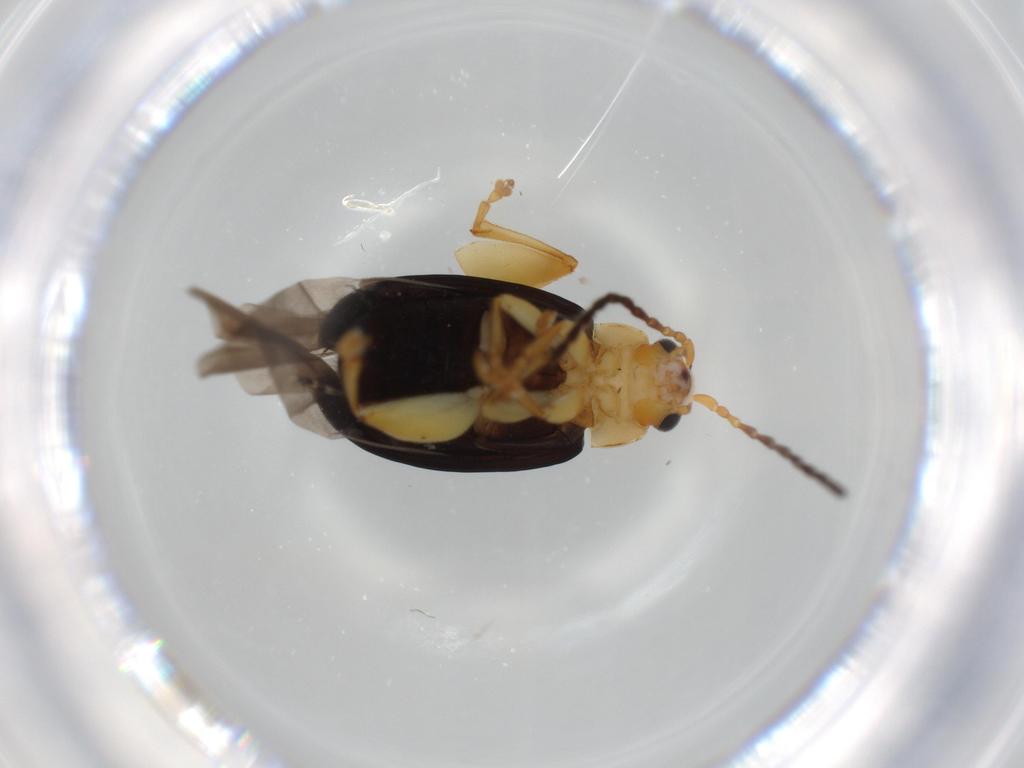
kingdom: Animalia
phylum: Arthropoda
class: Insecta
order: Coleoptera
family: Chrysomelidae
